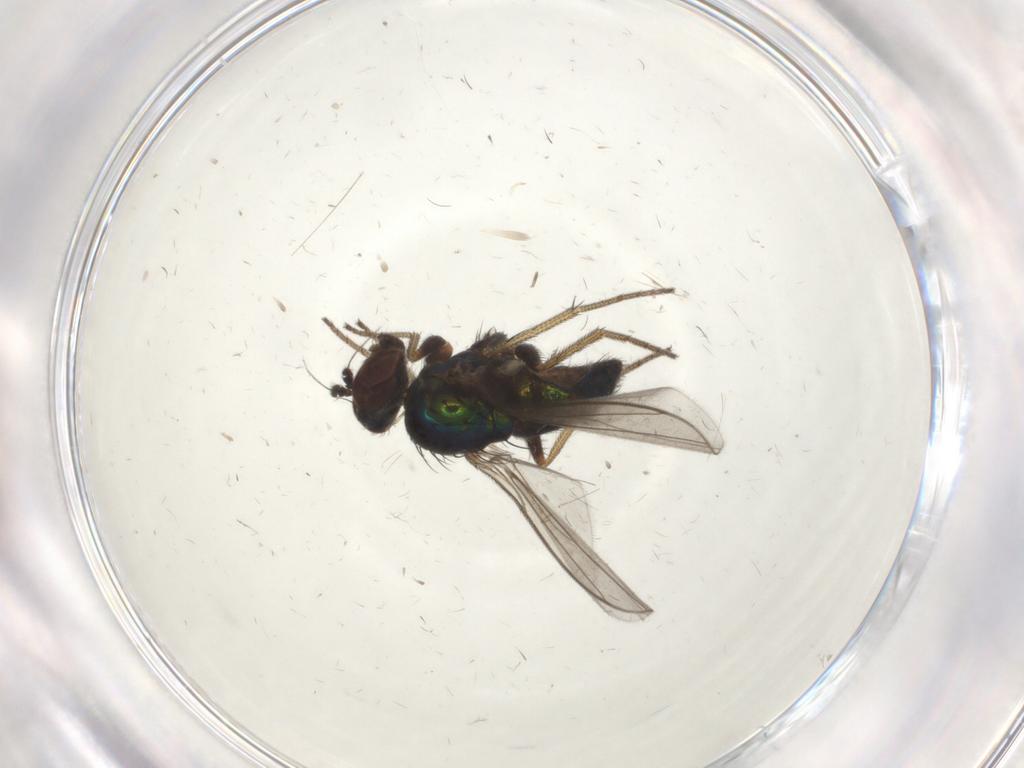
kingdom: Animalia
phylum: Arthropoda
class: Insecta
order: Diptera
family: Dolichopodidae
